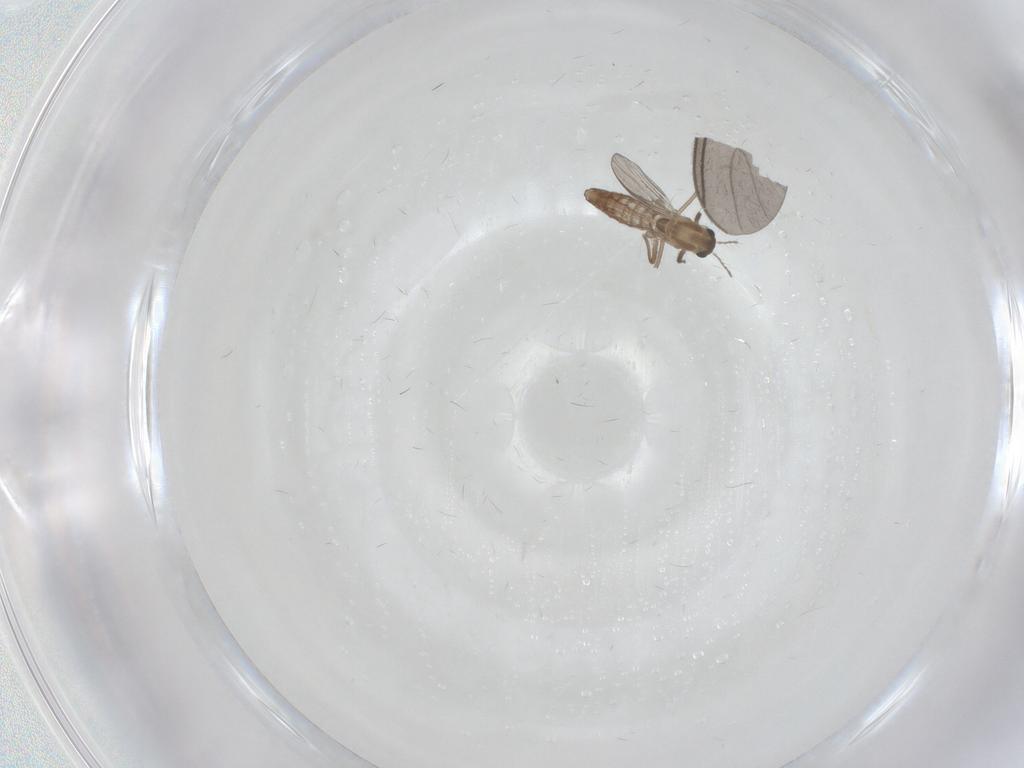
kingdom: Animalia
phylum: Arthropoda
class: Insecta
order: Diptera
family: Chironomidae
